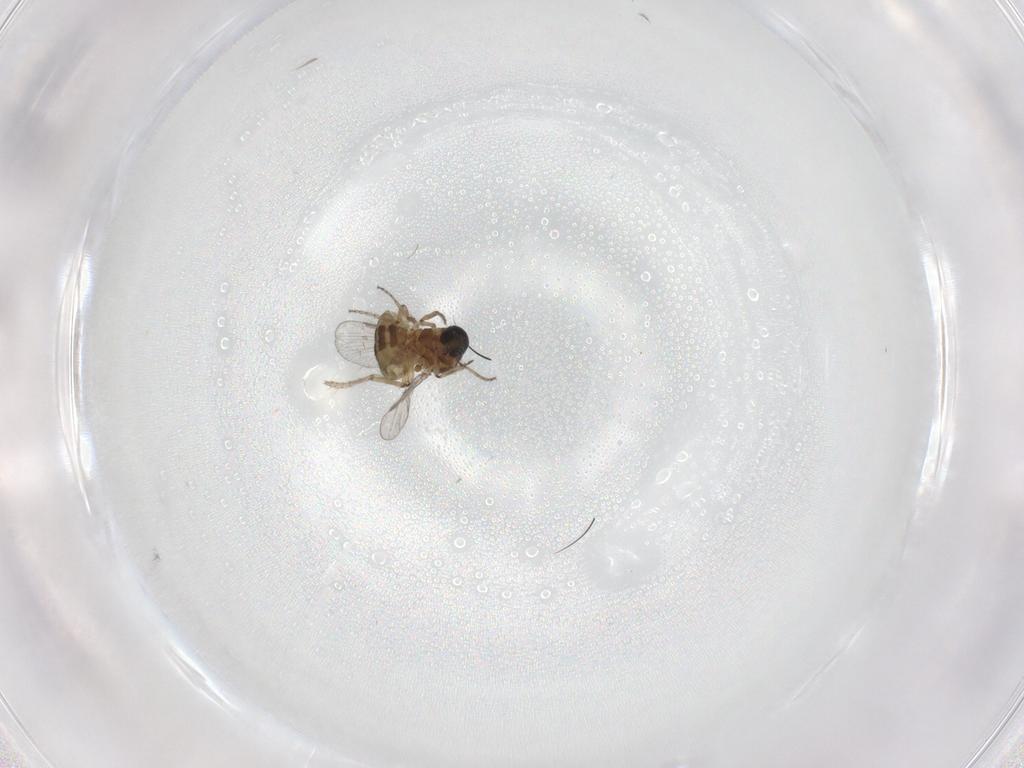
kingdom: Animalia
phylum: Arthropoda
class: Insecta
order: Diptera
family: Ceratopogonidae
